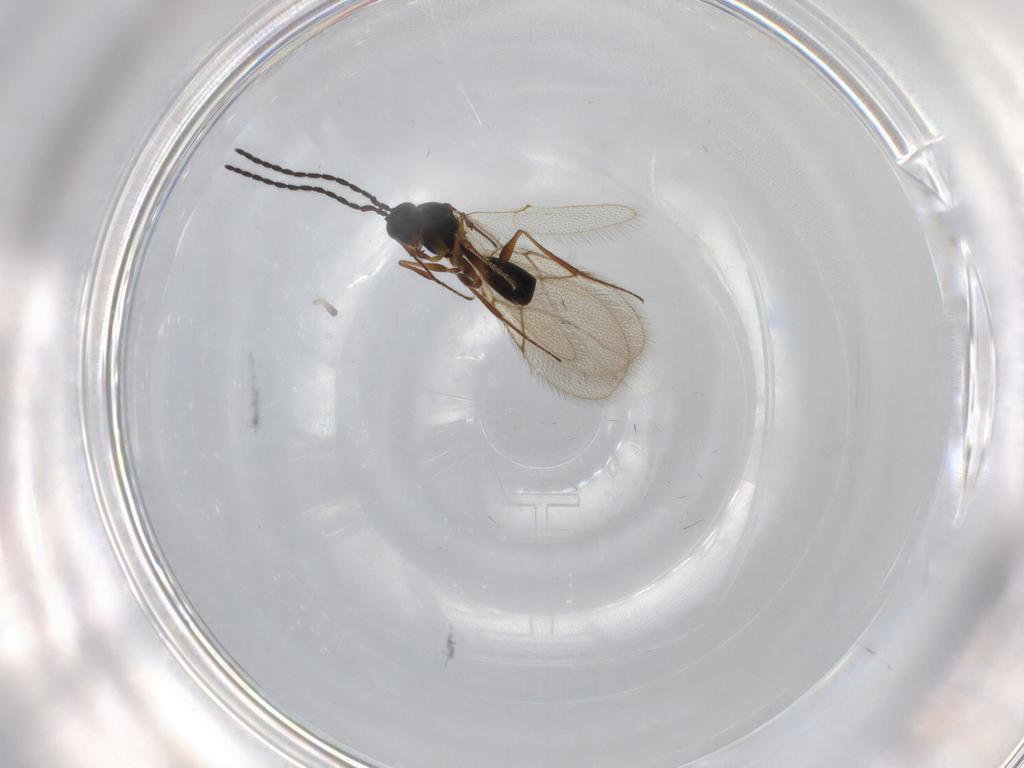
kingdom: Animalia
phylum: Arthropoda
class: Insecta
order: Hymenoptera
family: Figitidae
